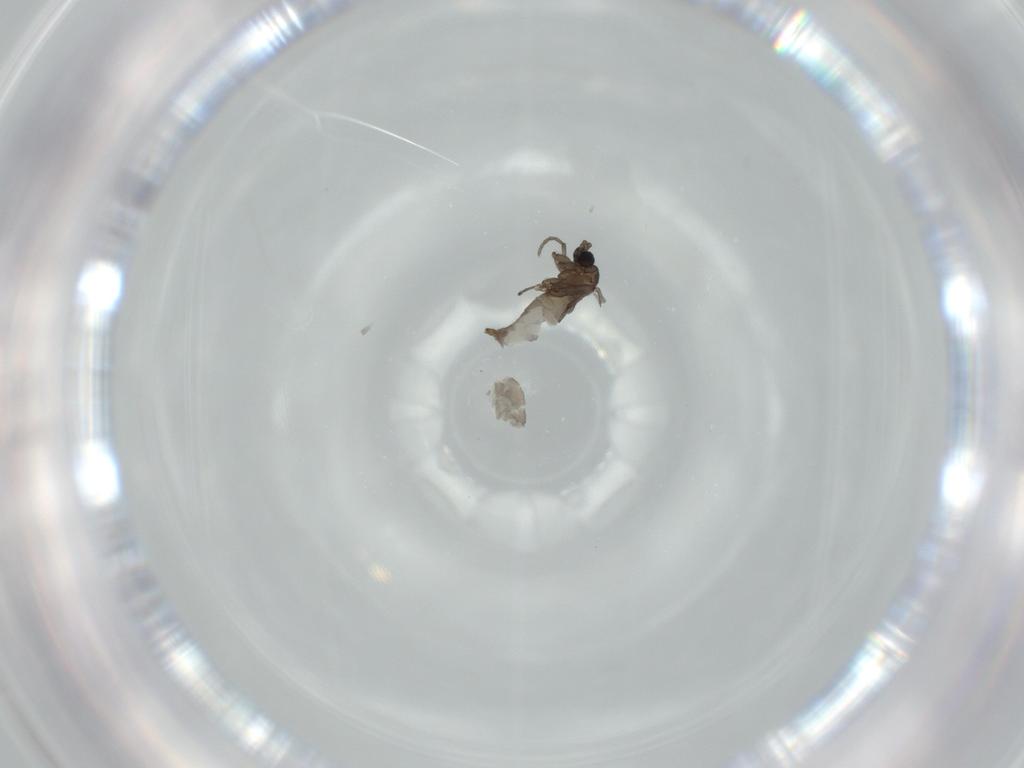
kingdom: Animalia
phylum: Arthropoda
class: Insecta
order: Diptera
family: Sciaridae
